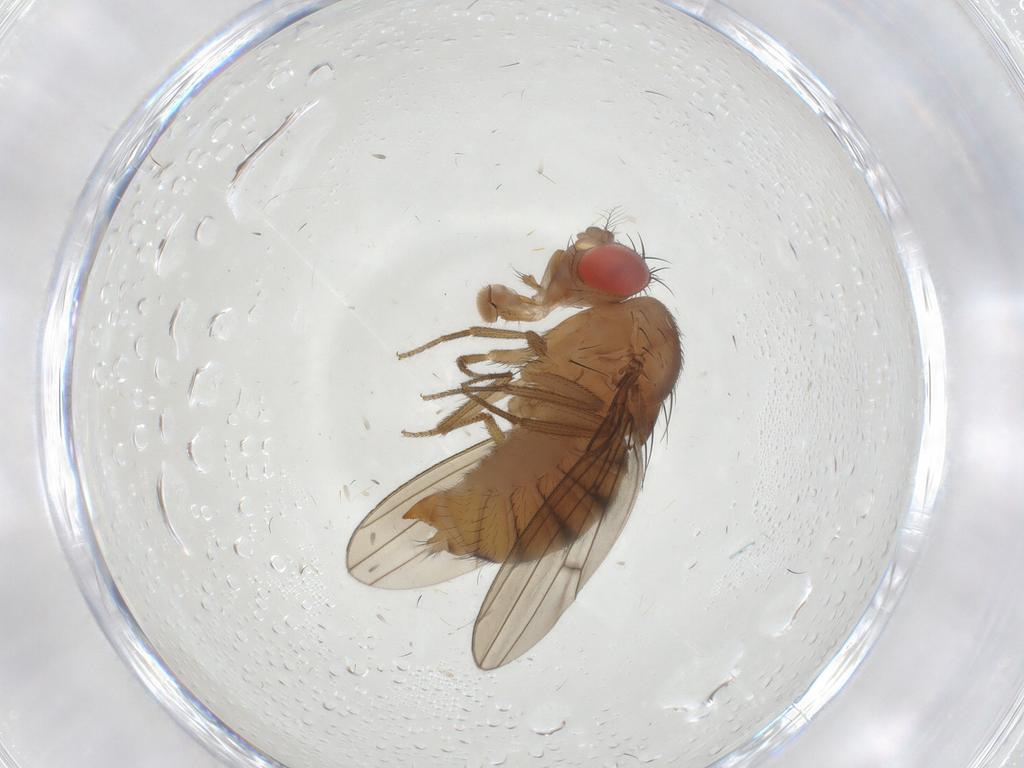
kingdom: Animalia
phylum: Arthropoda
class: Insecta
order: Diptera
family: Drosophilidae
